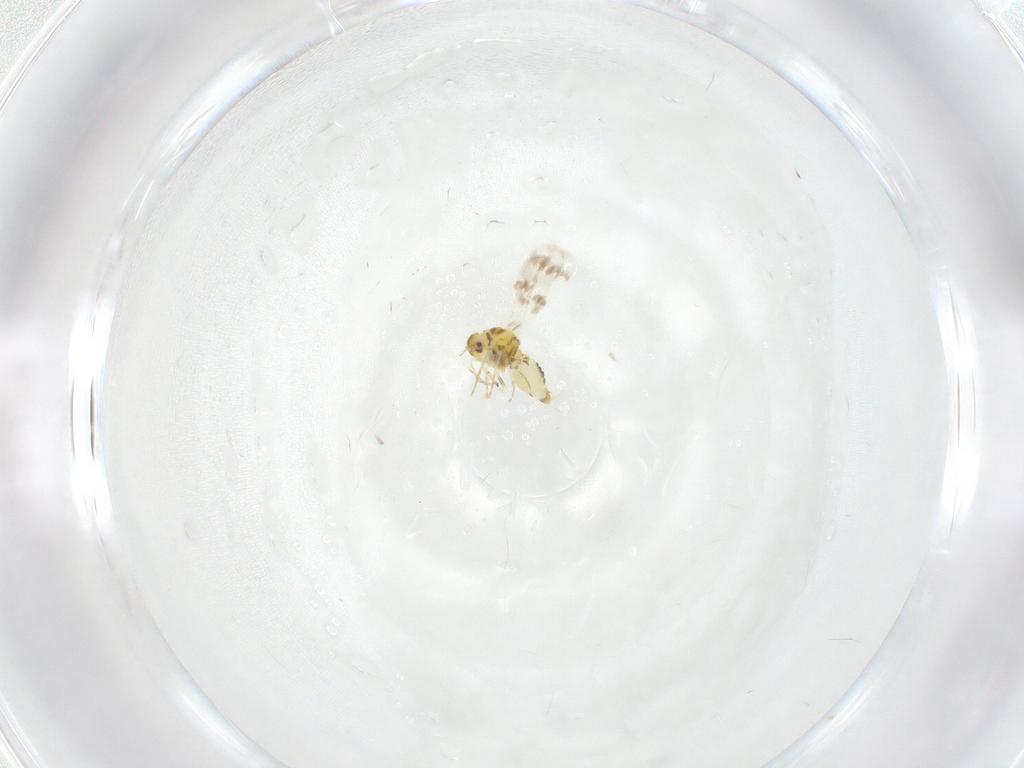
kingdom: Animalia
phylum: Arthropoda
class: Insecta
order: Hemiptera
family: Aleyrodidae
